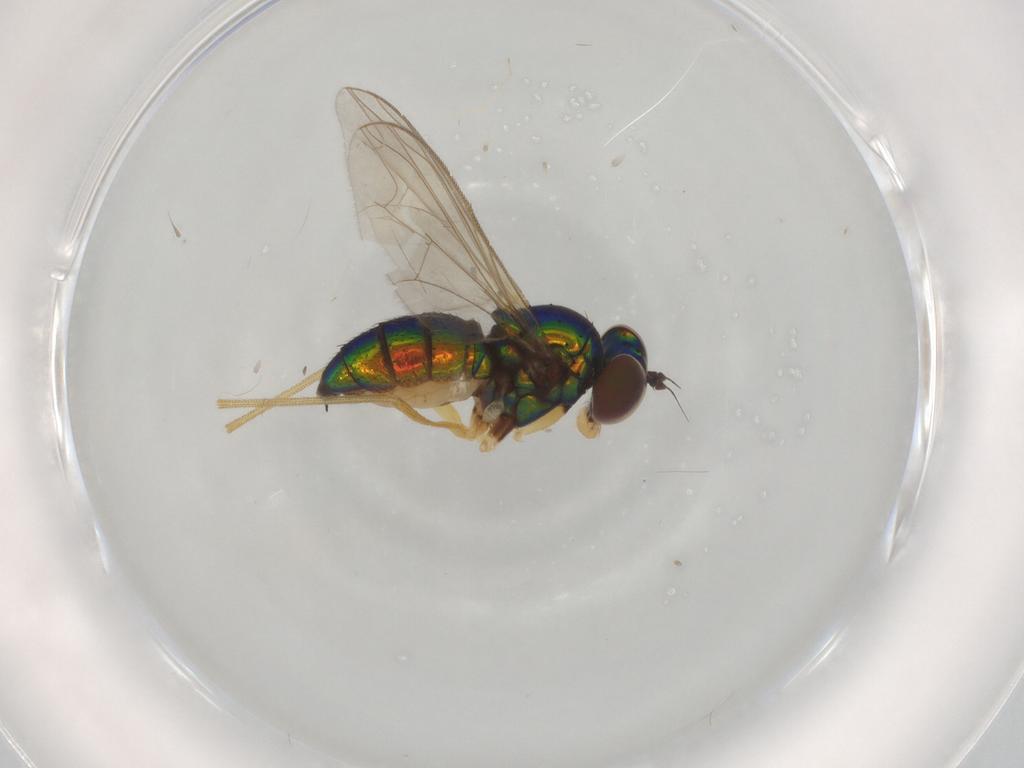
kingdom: Animalia
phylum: Arthropoda
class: Insecta
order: Diptera
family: Dolichopodidae
